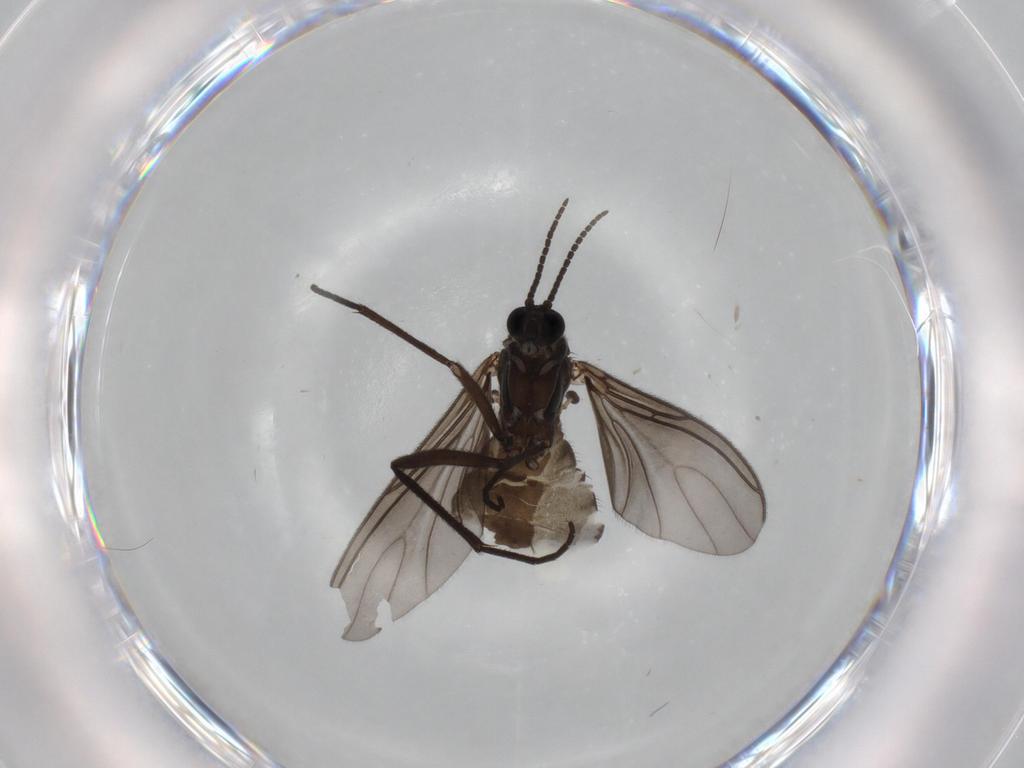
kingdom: Animalia
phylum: Arthropoda
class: Insecta
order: Diptera
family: Sciaridae
